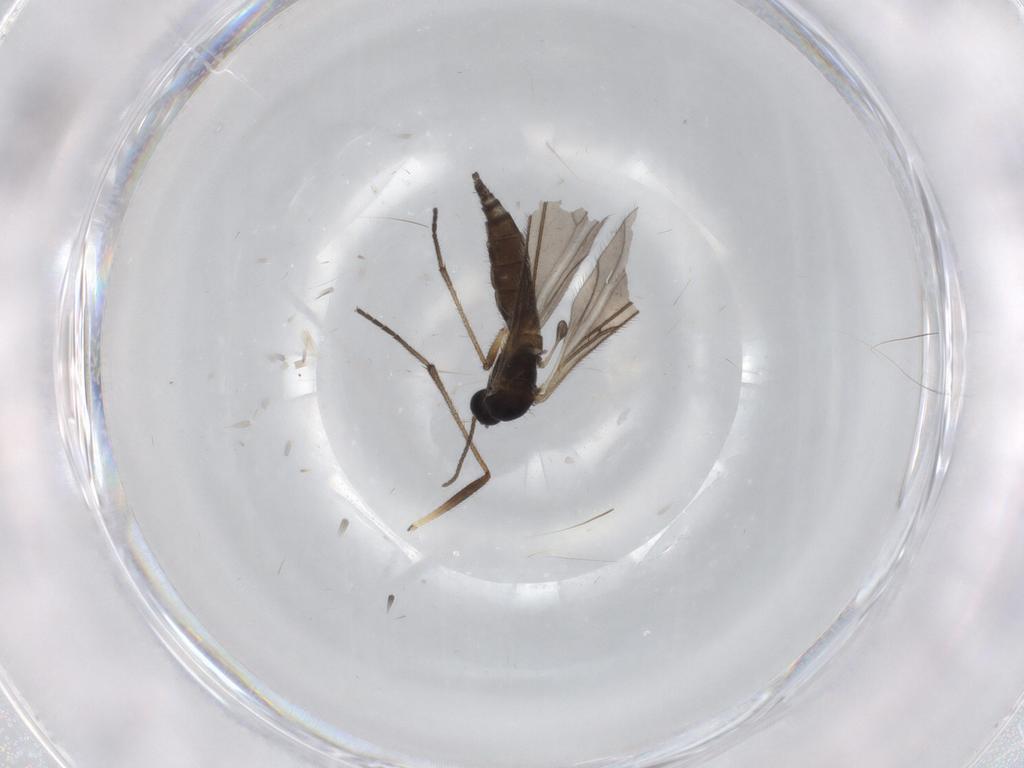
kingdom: Animalia
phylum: Arthropoda
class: Insecta
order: Diptera
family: Sciaridae
